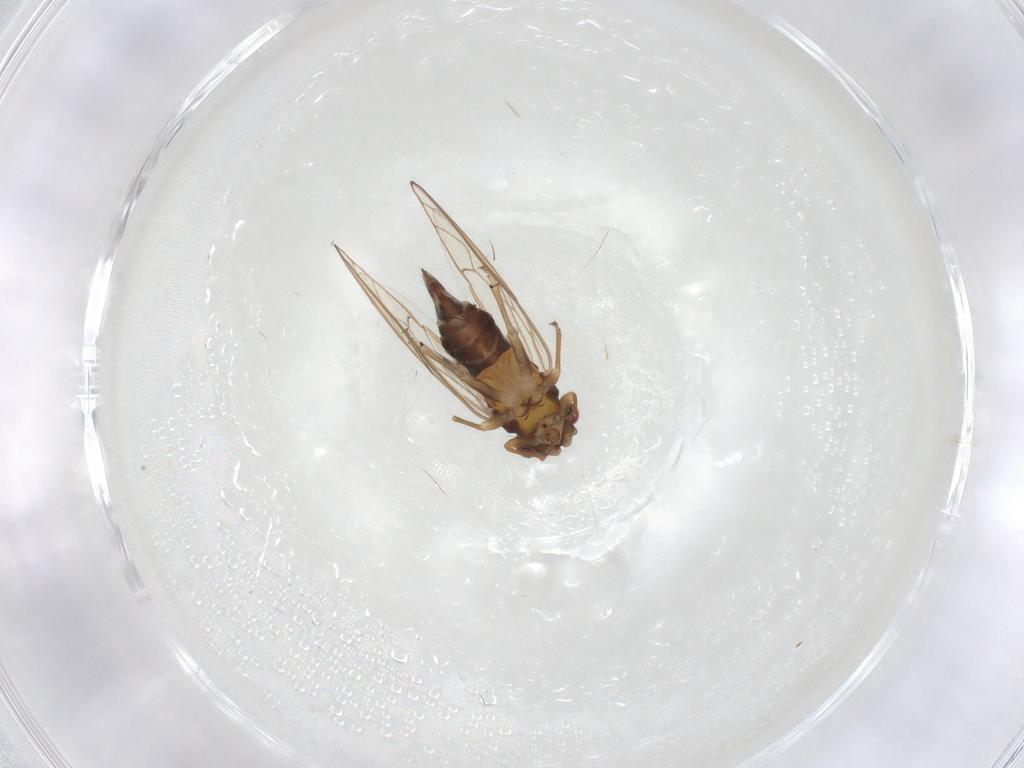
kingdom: Animalia
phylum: Arthropoda
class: Insecta
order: Hemiptera
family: Psyllidae
